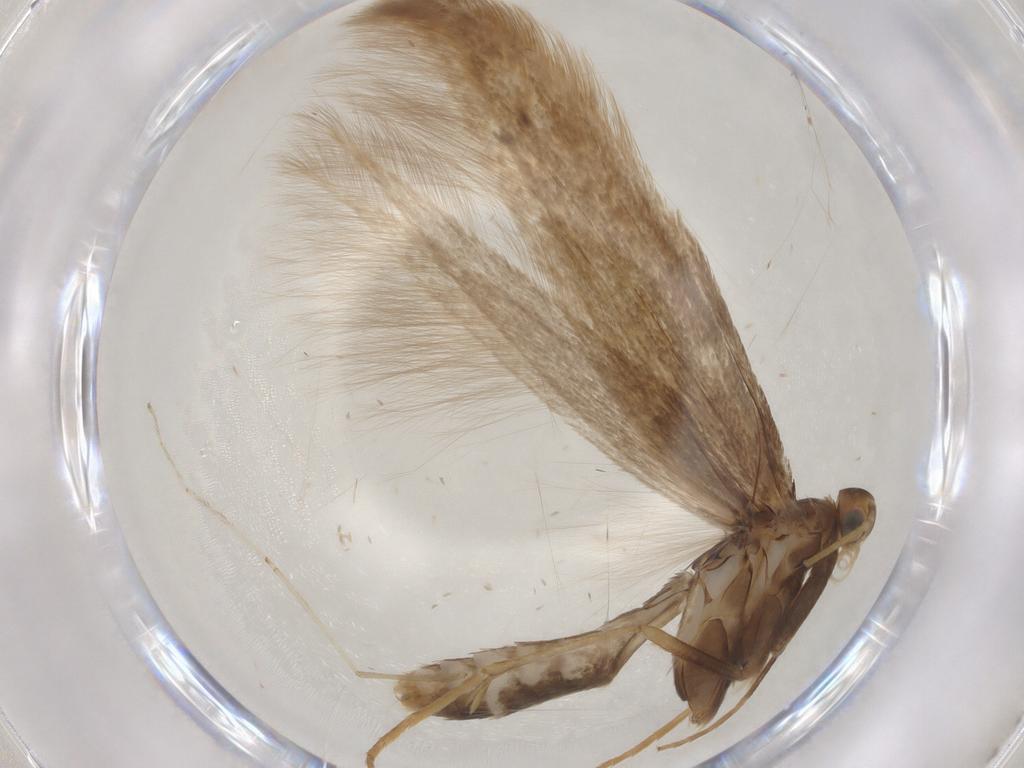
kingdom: Animalia
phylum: Arthropoda
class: Insecta
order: Lepidoptera
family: Coleophoridae
